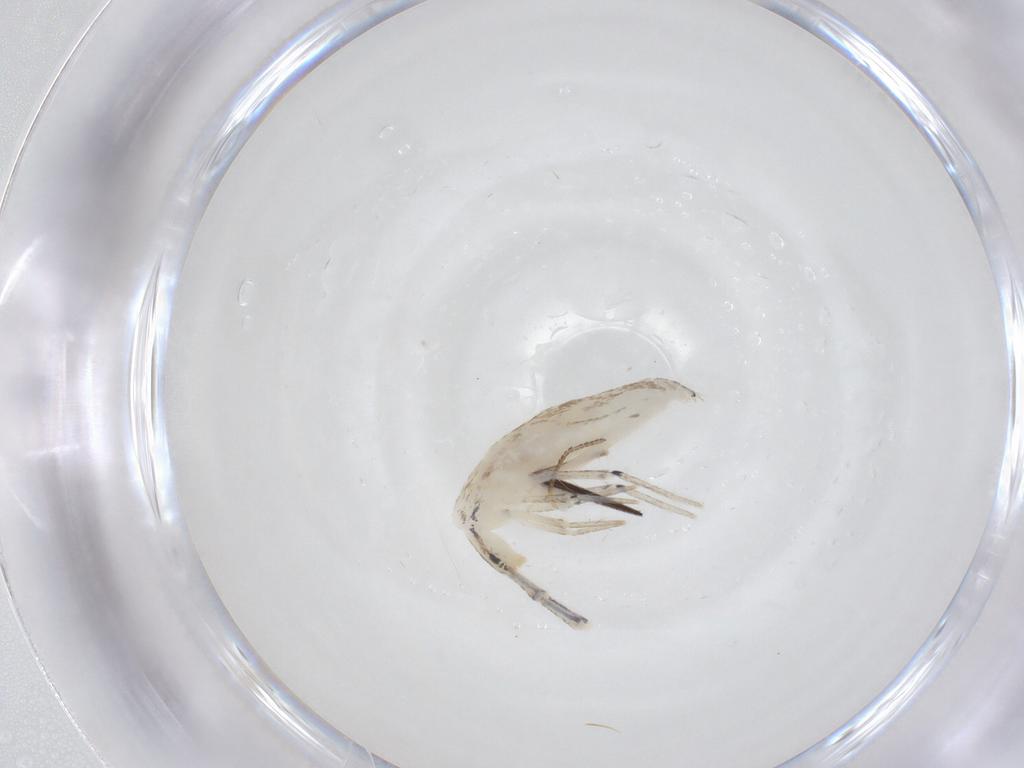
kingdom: Animalia
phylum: Arthropoda
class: Collembola
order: Entomobryomorpha
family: Entomobryidae
